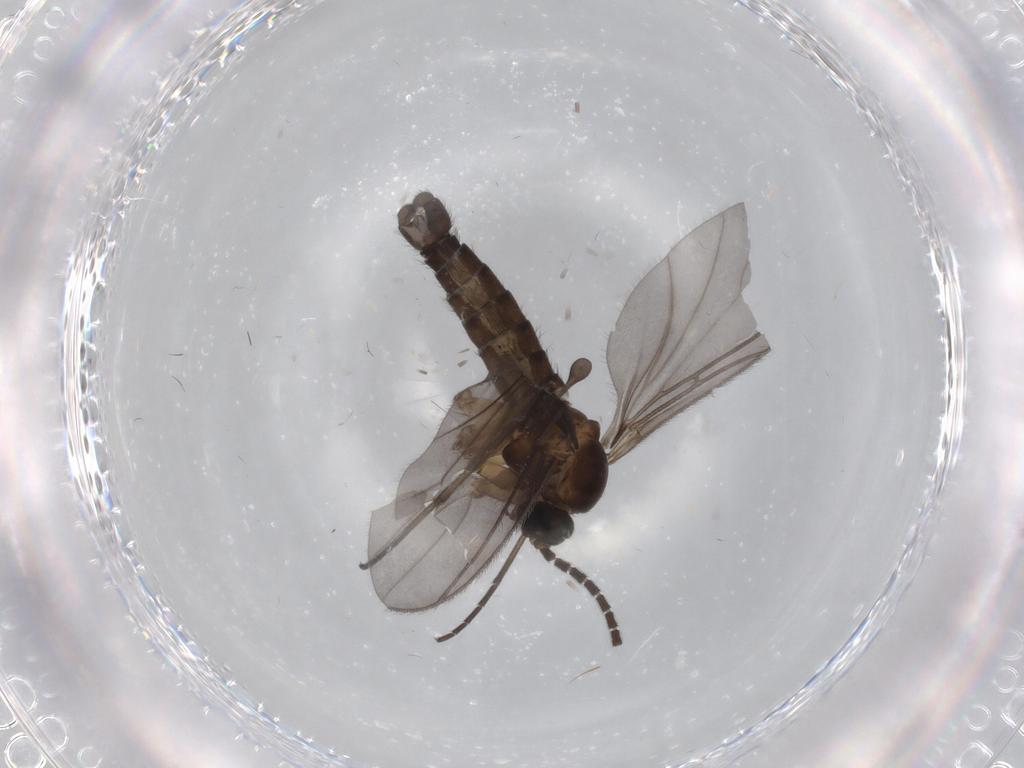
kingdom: Animalia
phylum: Arthropoda
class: Insecta
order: Diptera
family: Sciaridae
